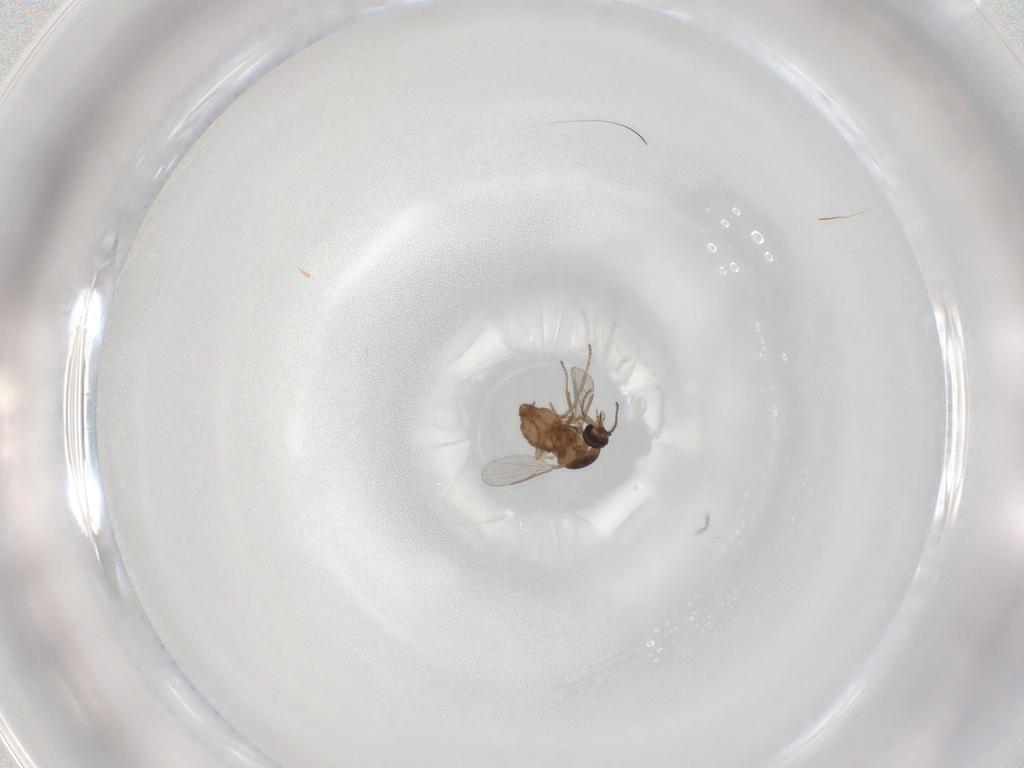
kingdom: Animalia
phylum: Arthropoda
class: Insecta
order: Diptera
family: Ceratopogonidae
